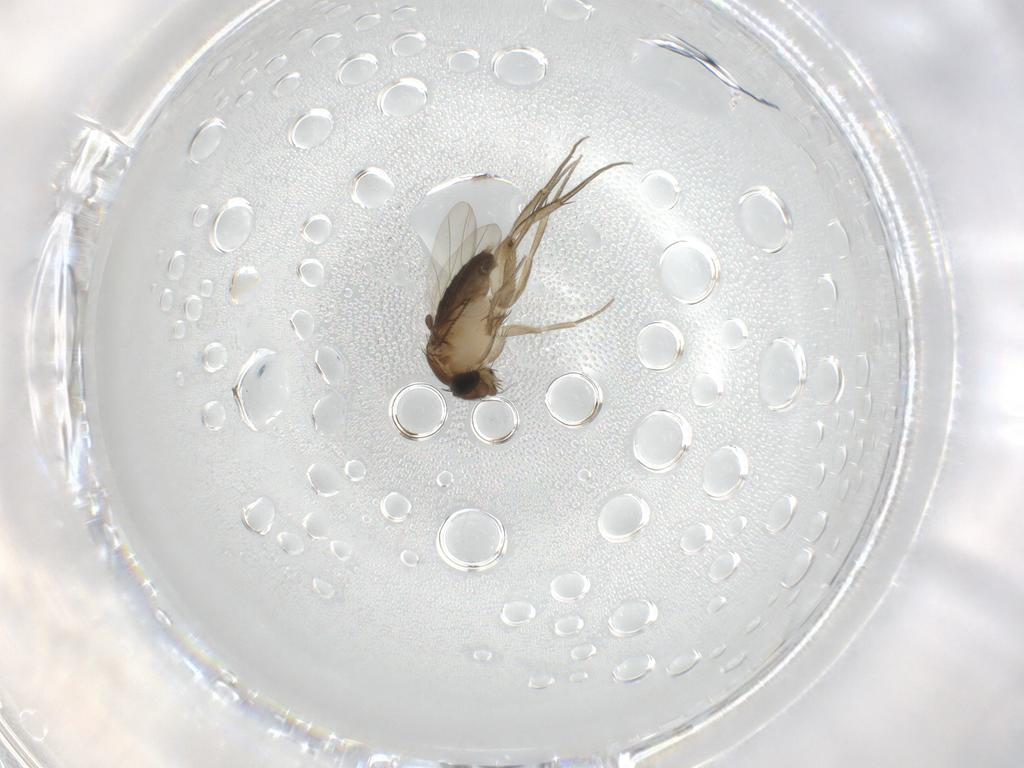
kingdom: Animalia
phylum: Arthropoda
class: Insecta
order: Diptera
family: Phoridae
